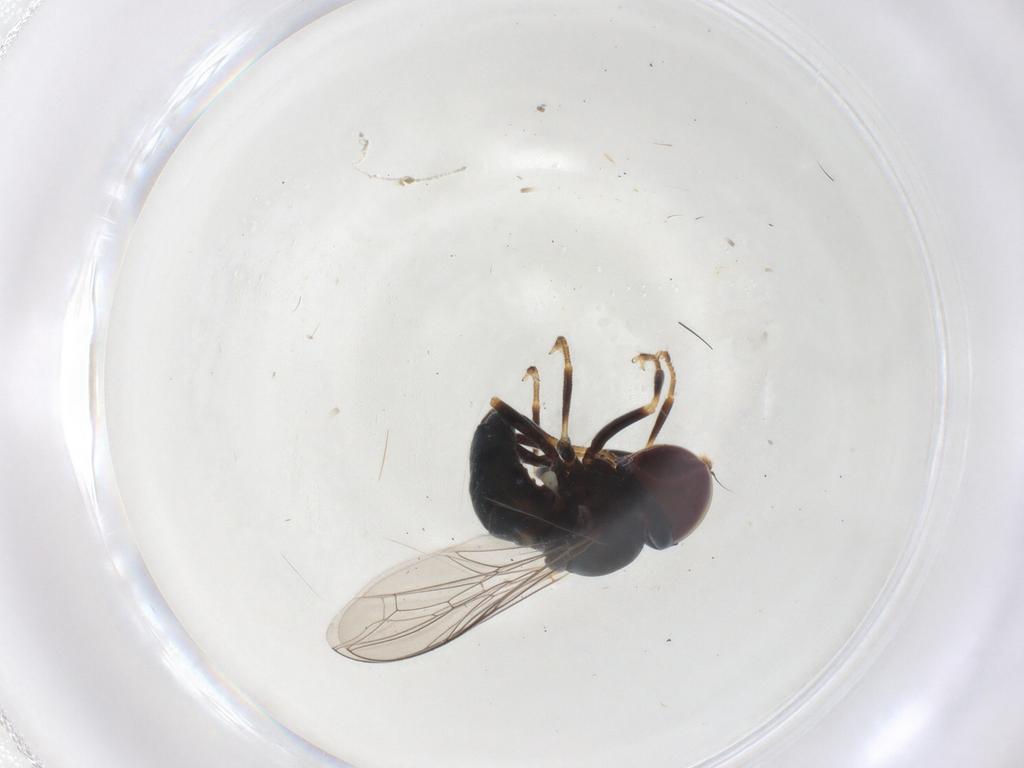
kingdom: Animalia
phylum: Arthropoda
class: Insecta
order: Diptera
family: Pipunculidae
